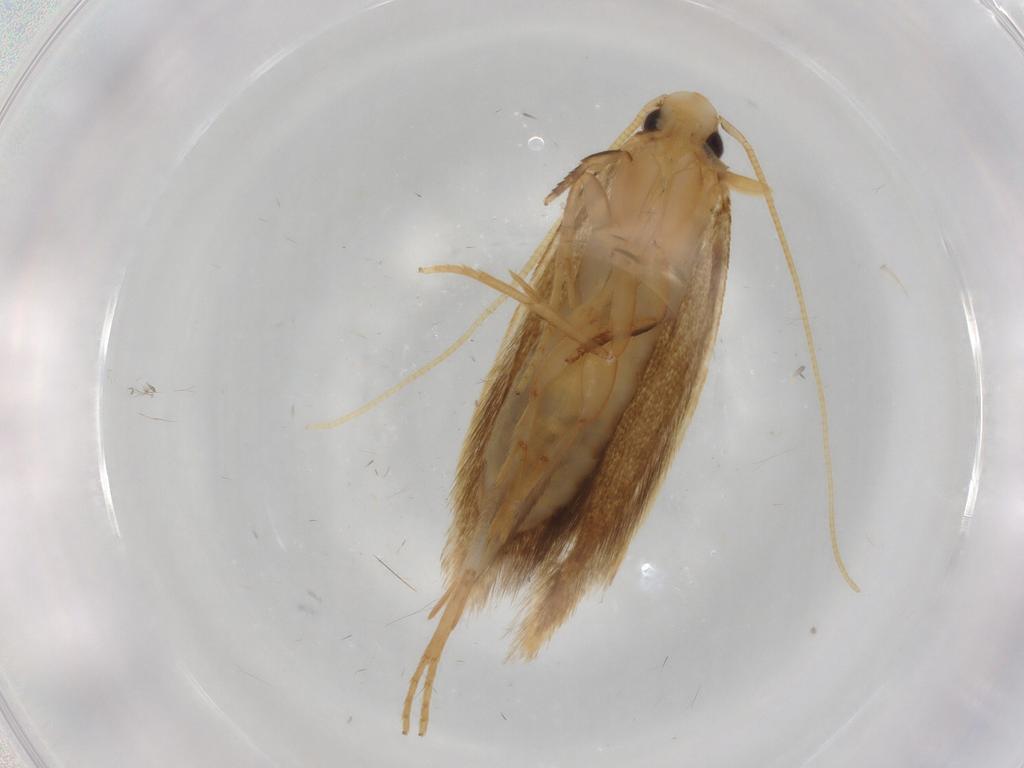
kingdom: Animalia
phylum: Arthropoda
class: Insecta
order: Lepidoptera
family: Tineidae
